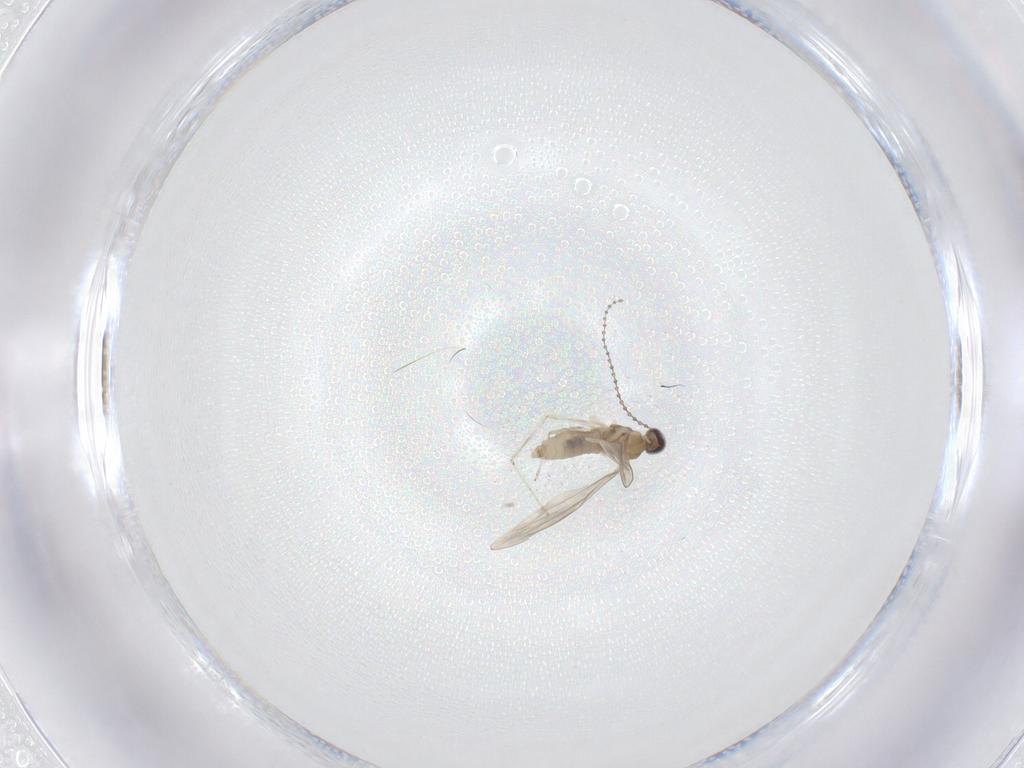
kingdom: Animalia
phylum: Arthropoda
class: Insecta
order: Diptera
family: Cecidomyiidae
